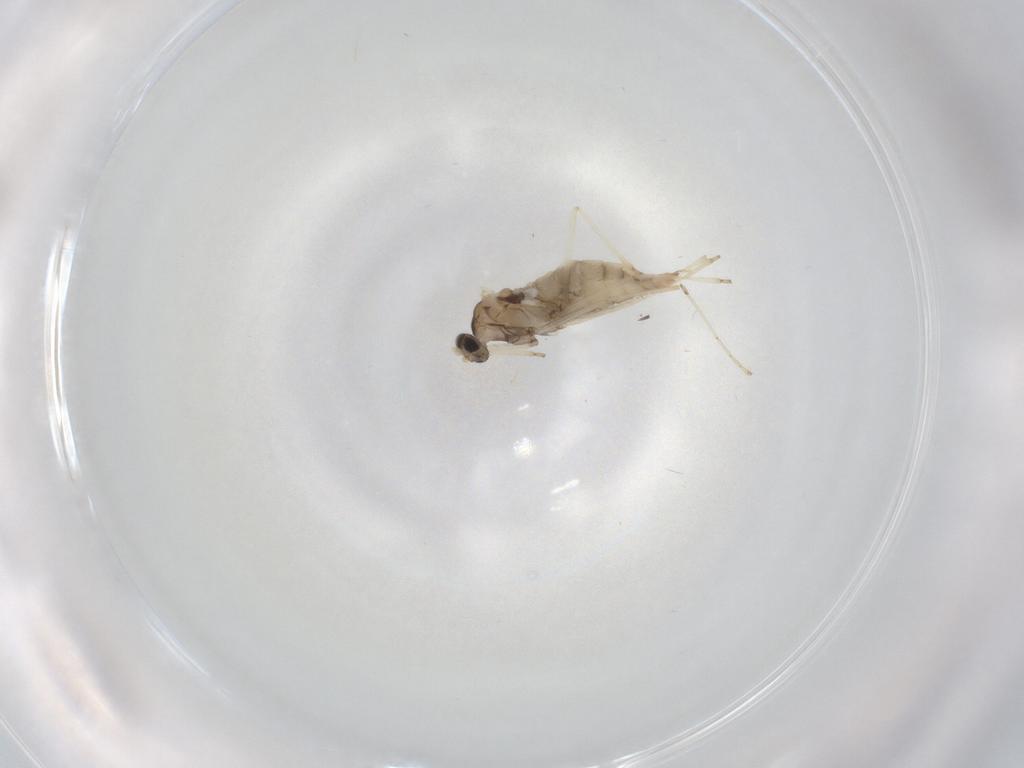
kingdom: Animalia
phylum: Arthropoda
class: Insecta
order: Diptera
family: Cecidomyiidae
